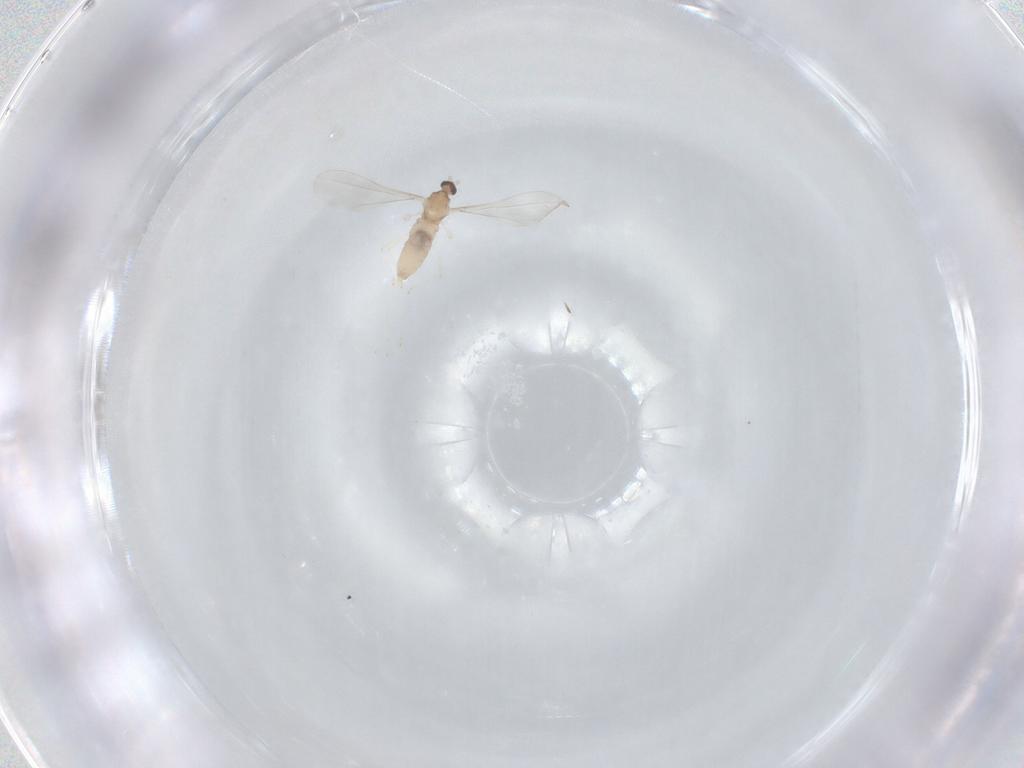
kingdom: Animalia
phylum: Arthropoda
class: Insecta
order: Diptera
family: Cecidomyiidae
